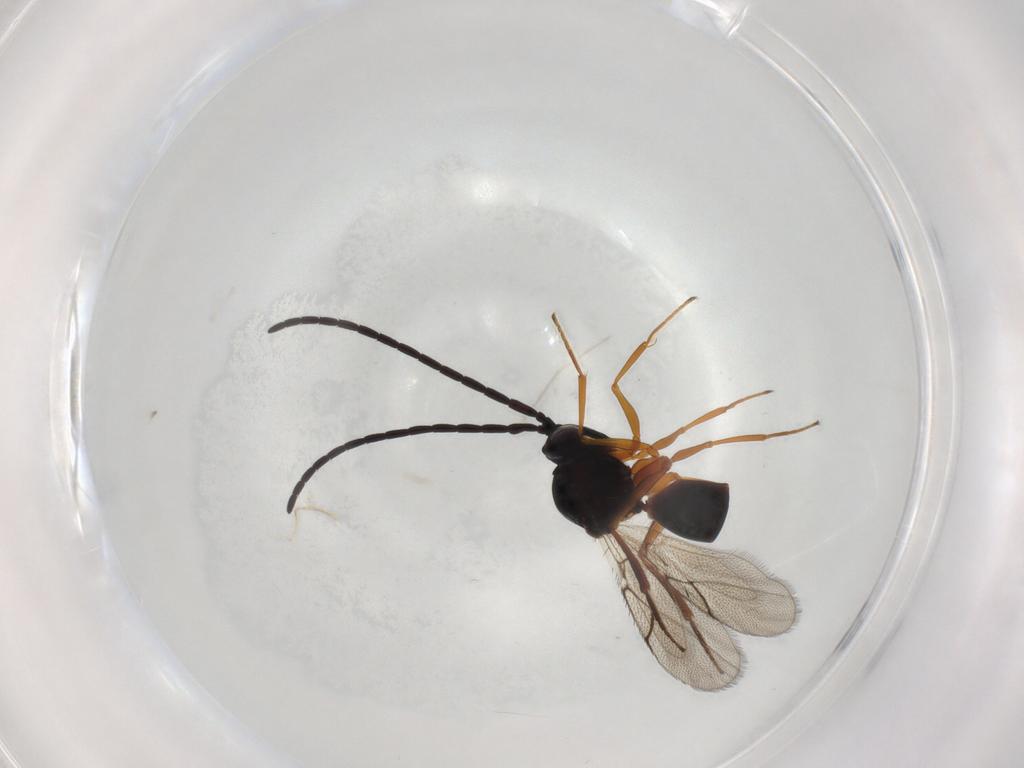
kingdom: Animalia
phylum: Arthropoda
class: Insecta
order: Hymenoptera
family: Figitidae
